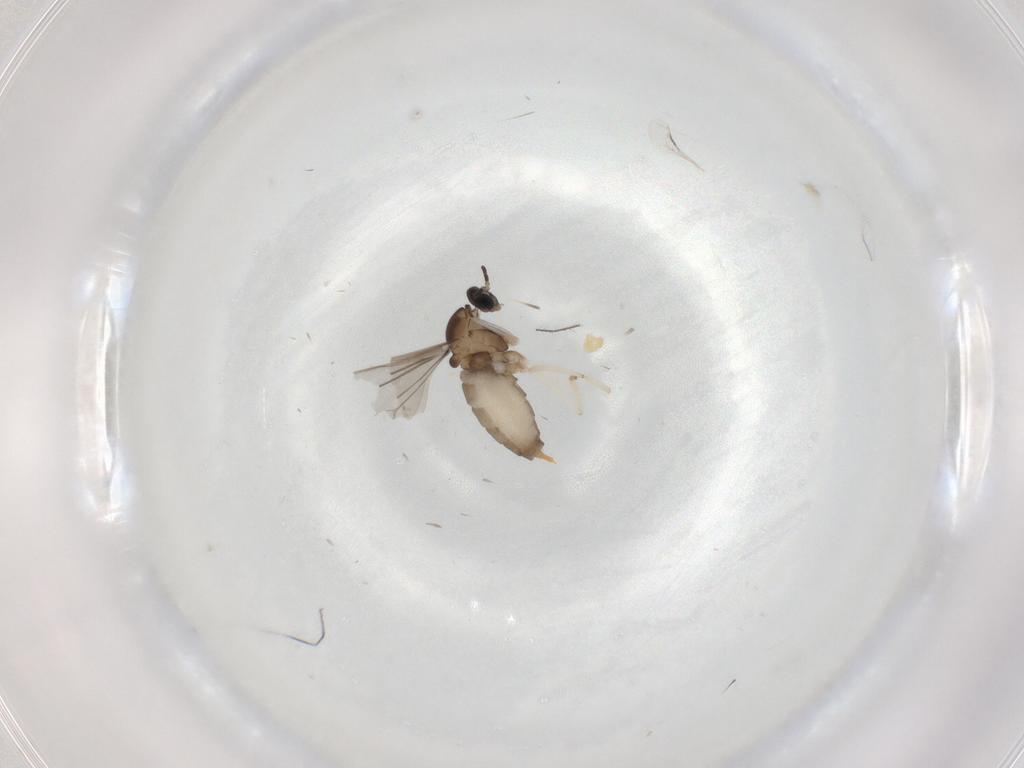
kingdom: Animalia
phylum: Arthropoda
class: Insecta
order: Diptera
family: Cecidomyiidae
